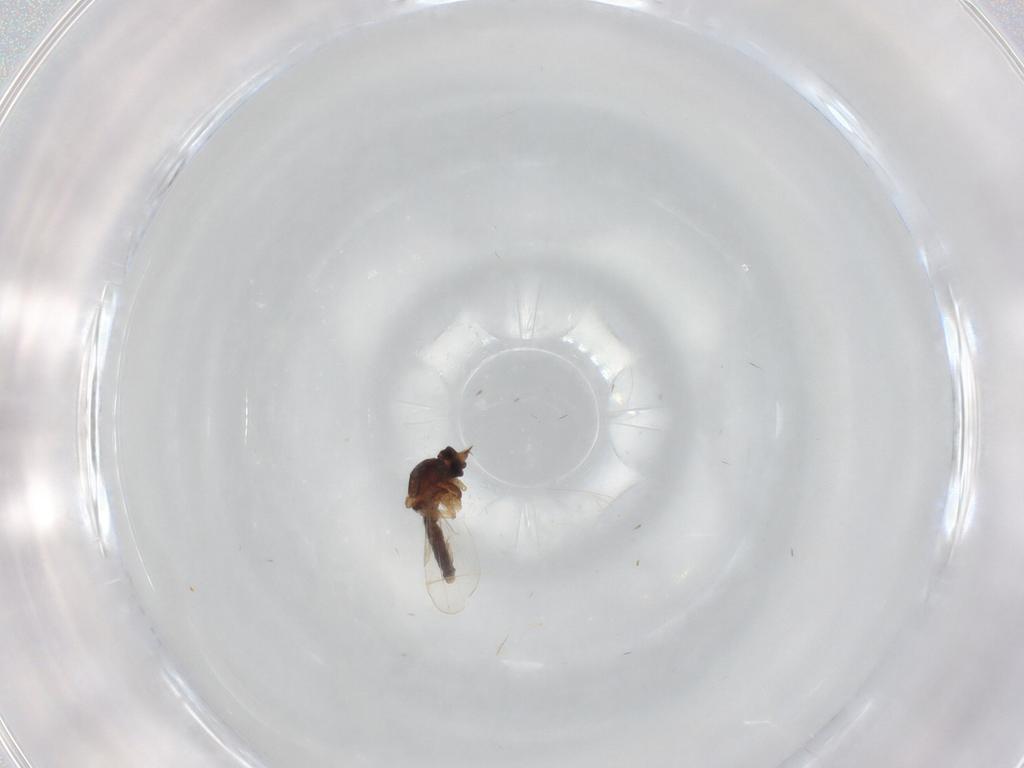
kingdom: Animalia
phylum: Arthropoda
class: Insecta
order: Diptera
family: Ceratopogonidae
